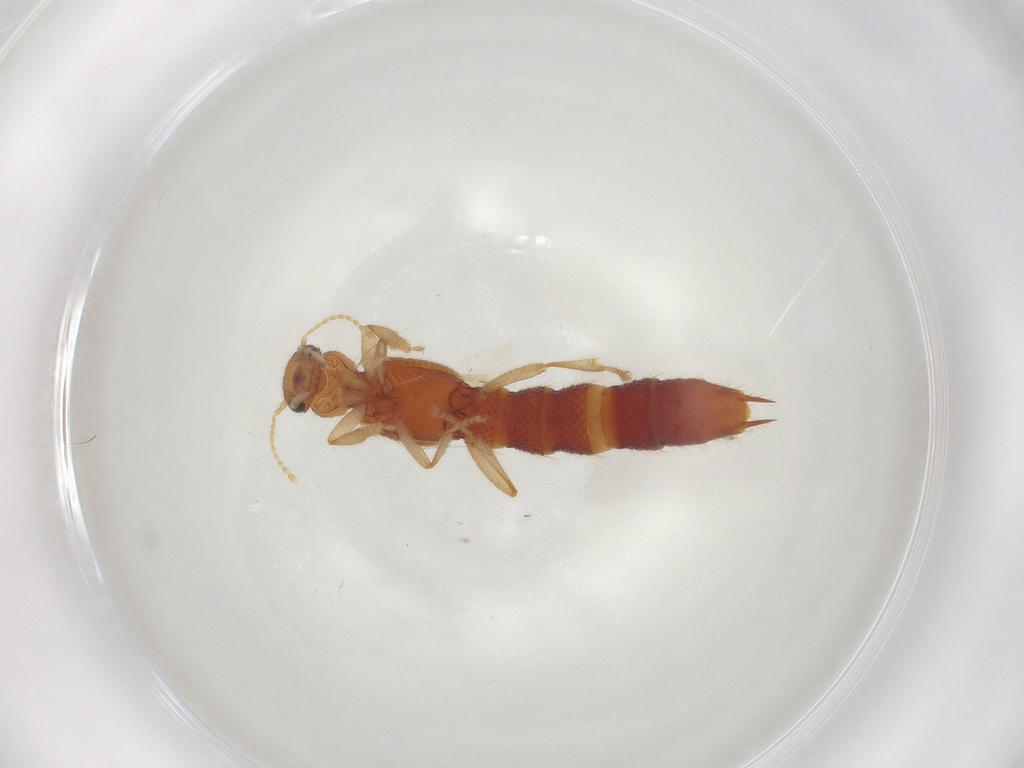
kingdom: Animalia
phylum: Arthropoda
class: Insecta
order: Coleoptera
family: Staphylinidae
